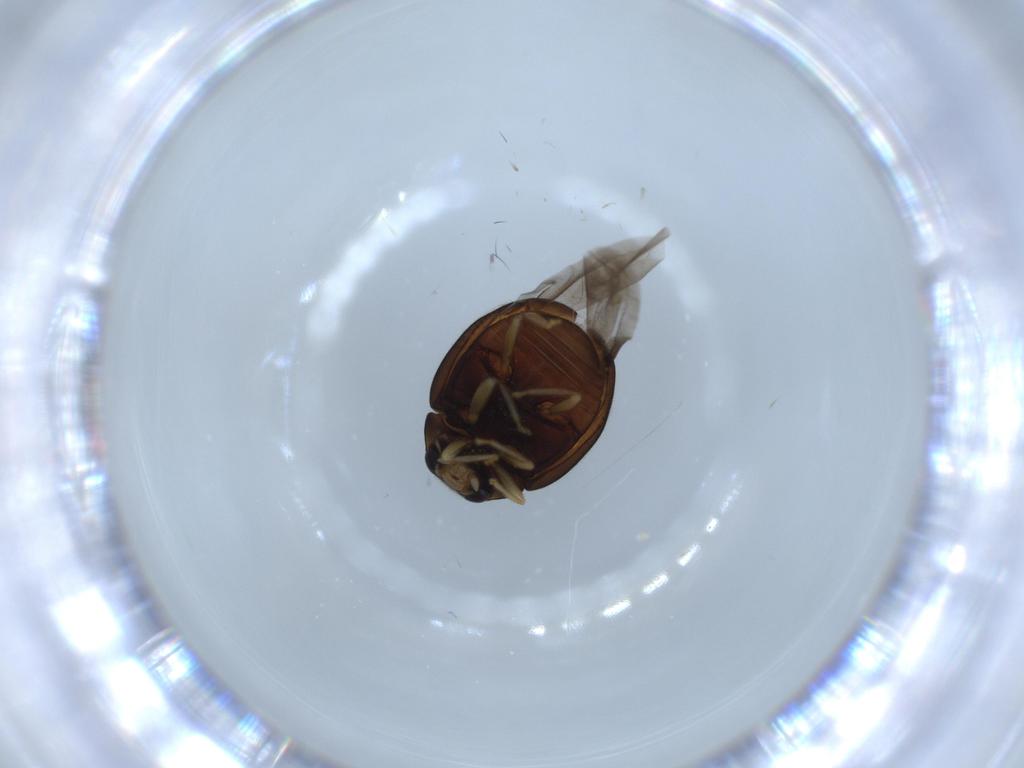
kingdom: Animalia
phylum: Arthropoda
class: Insecta
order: Coleoptera
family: Coccinellidae
